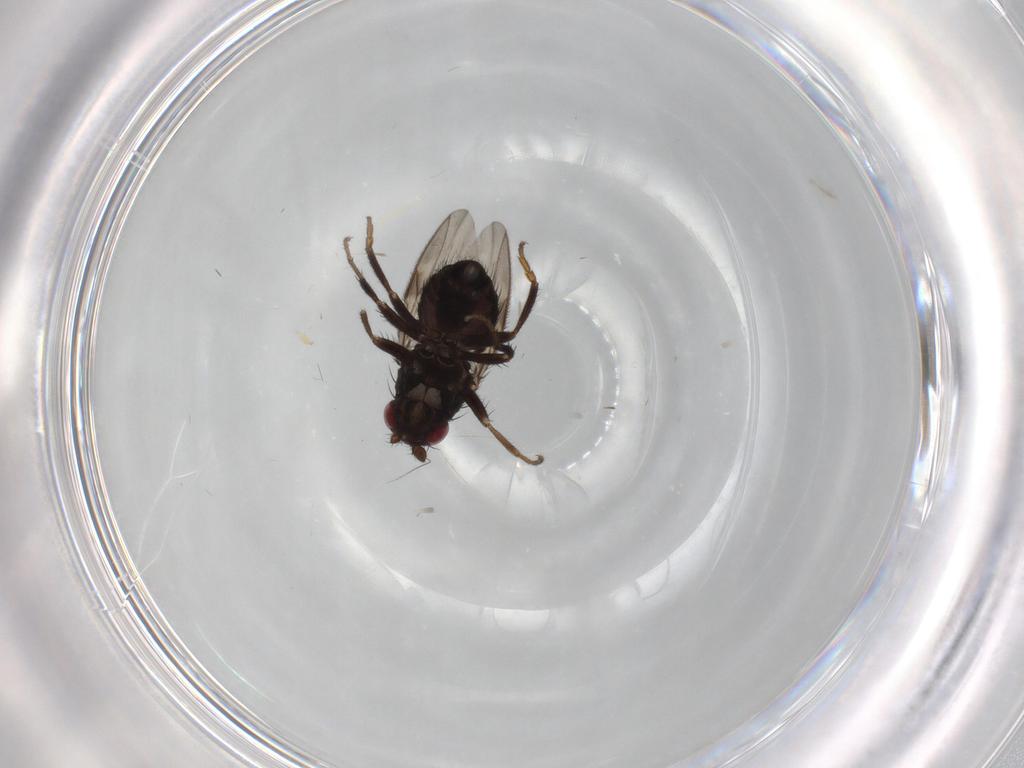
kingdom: Animalia
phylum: Arthropoda
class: Insecta
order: Diptera
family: Sphaeroceridae
